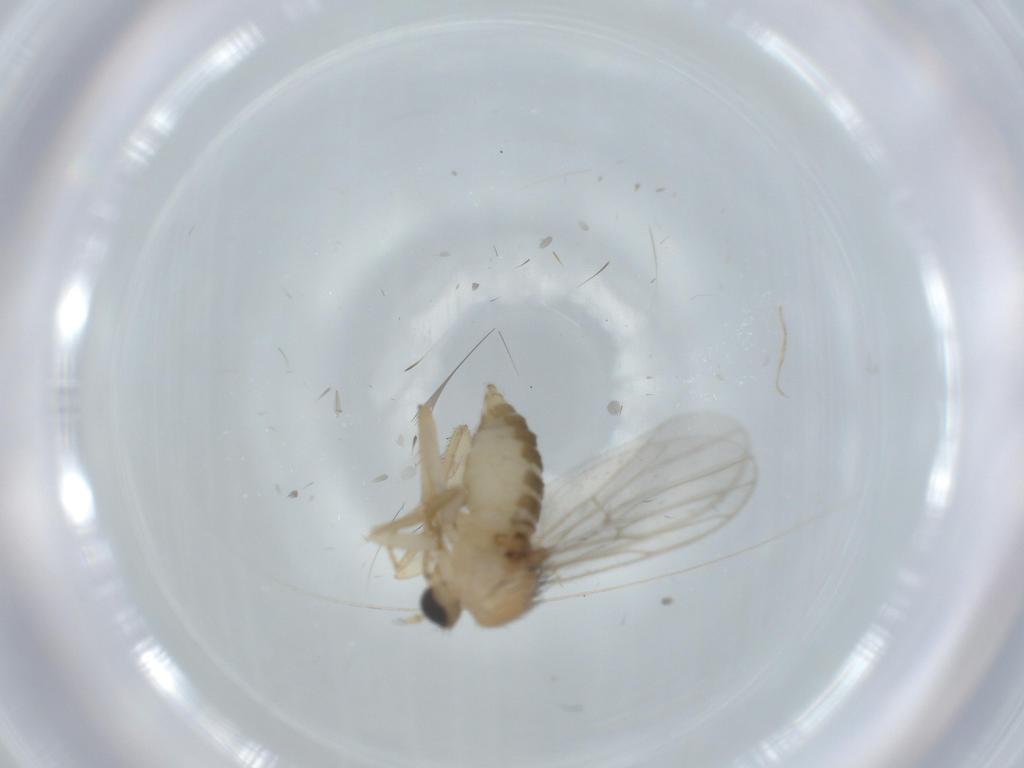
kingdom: Animalia
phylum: Arthropoda
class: Insecta
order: Diptera
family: Hybotidae
